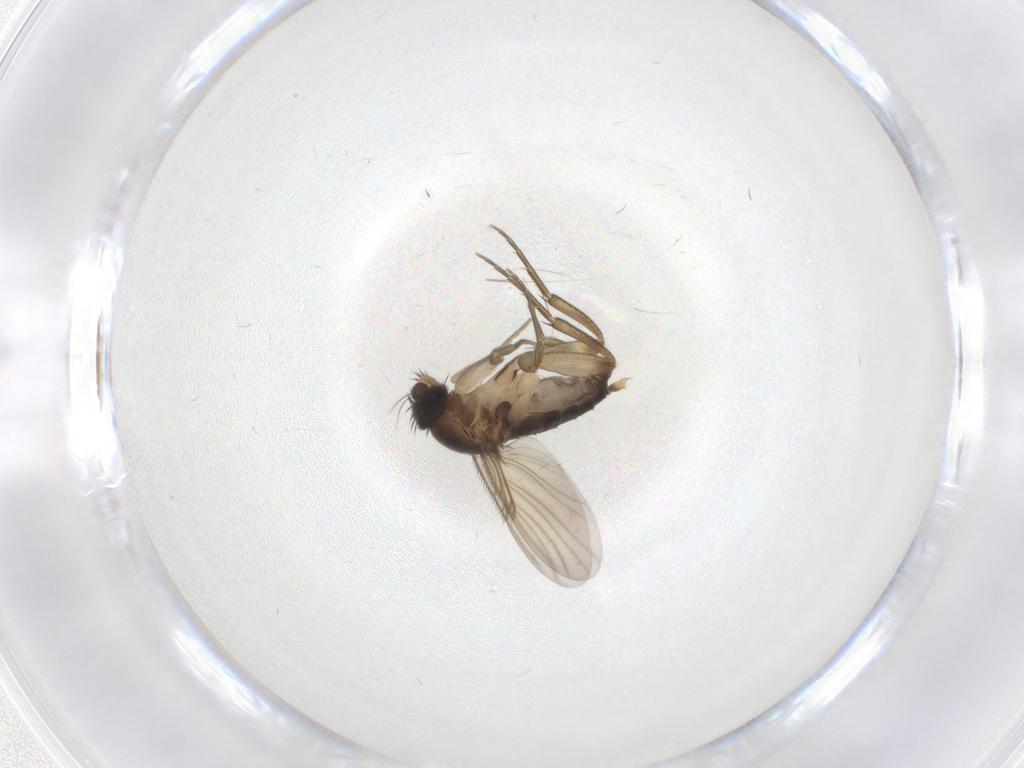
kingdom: Animalia
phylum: Arthropoda
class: Insecta
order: Diptera
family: Phoridae
